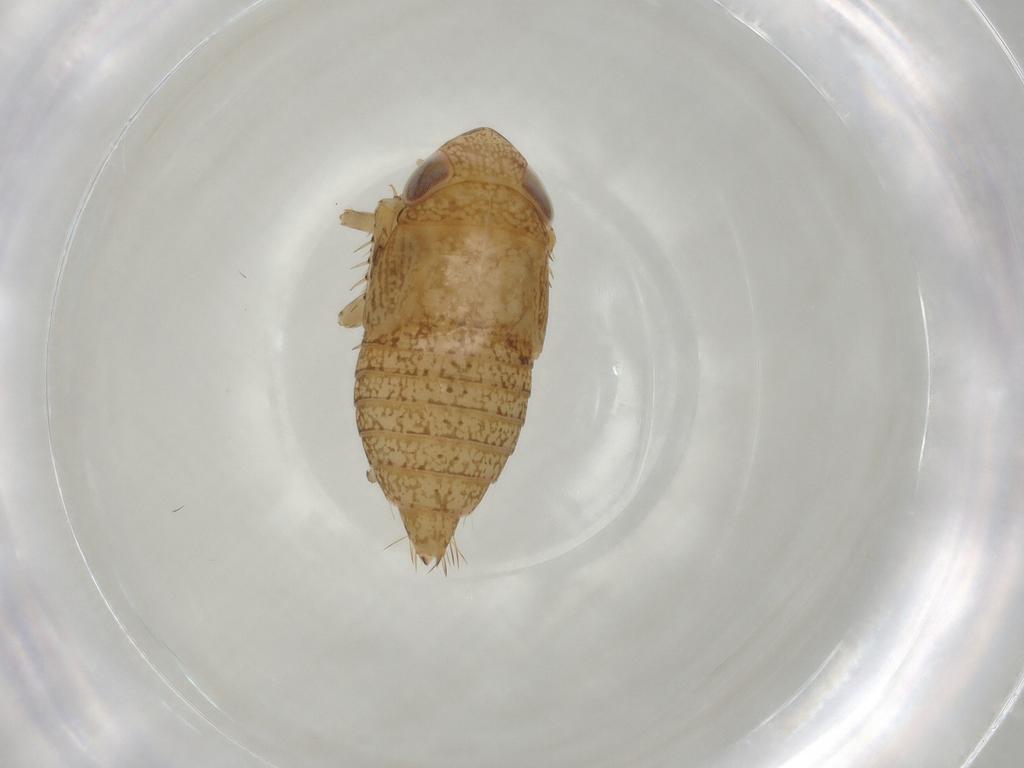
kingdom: Animalia
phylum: Arthropoda
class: Insecta
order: Hemiptera
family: Cicadellidae
